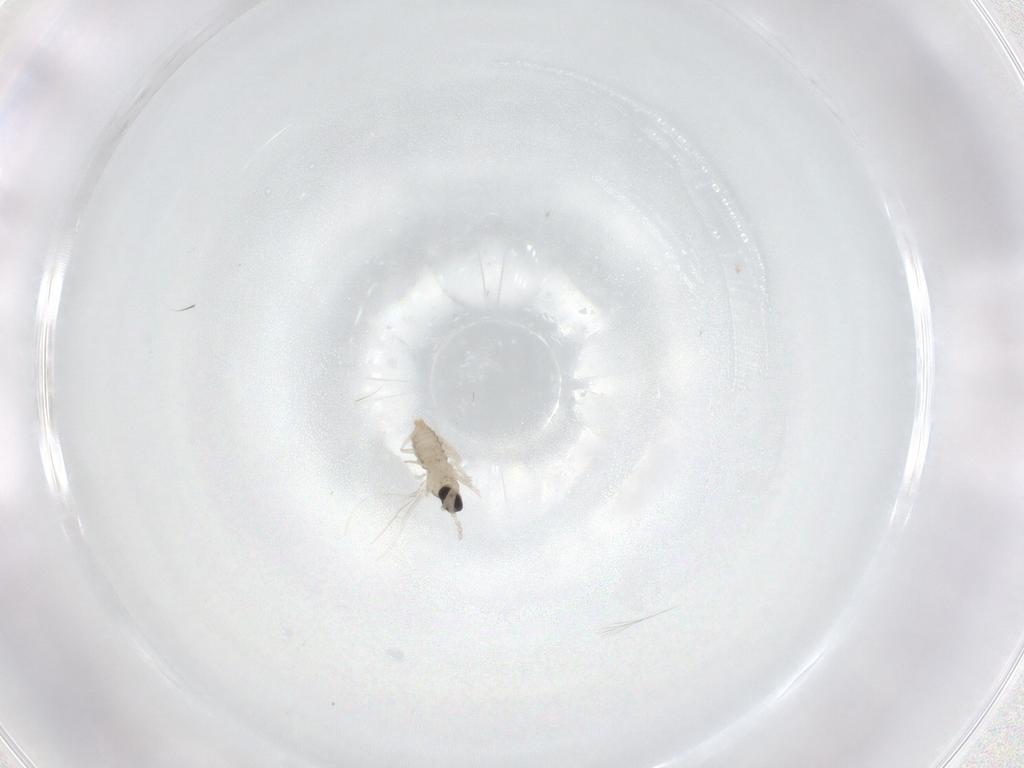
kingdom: Animalia
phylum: Arthropoda
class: Insecta
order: Diptera
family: Cecidomyiidae
